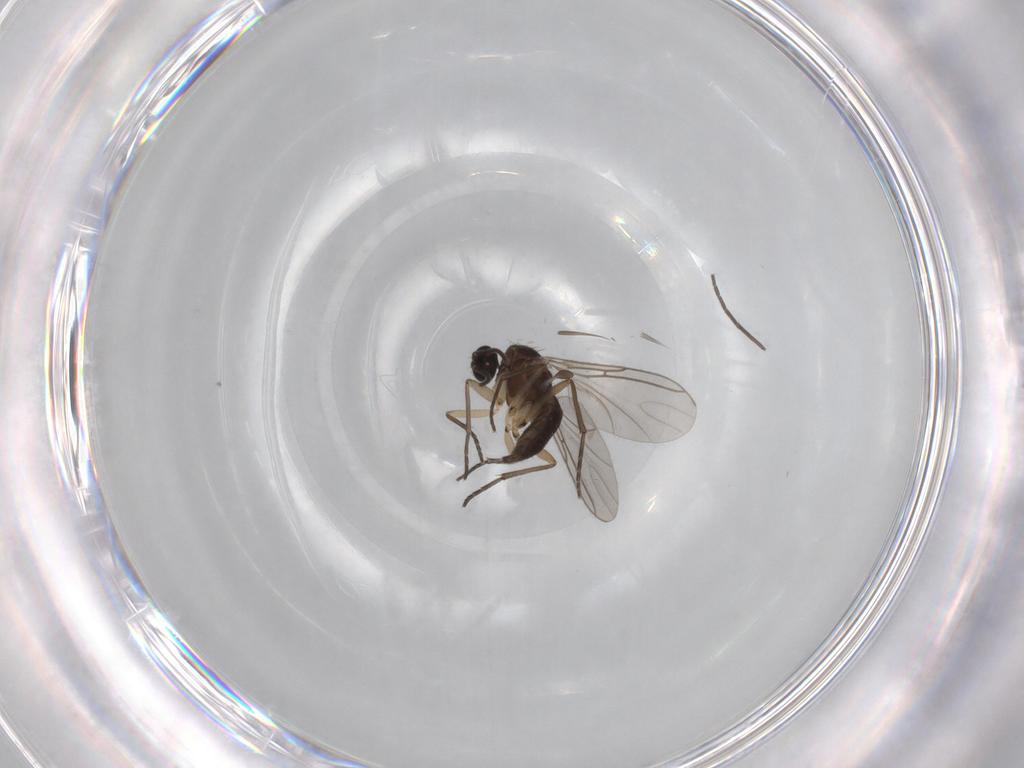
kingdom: Animalia
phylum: Arthropoda
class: Insecta
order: Diptera
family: Sciaridae
